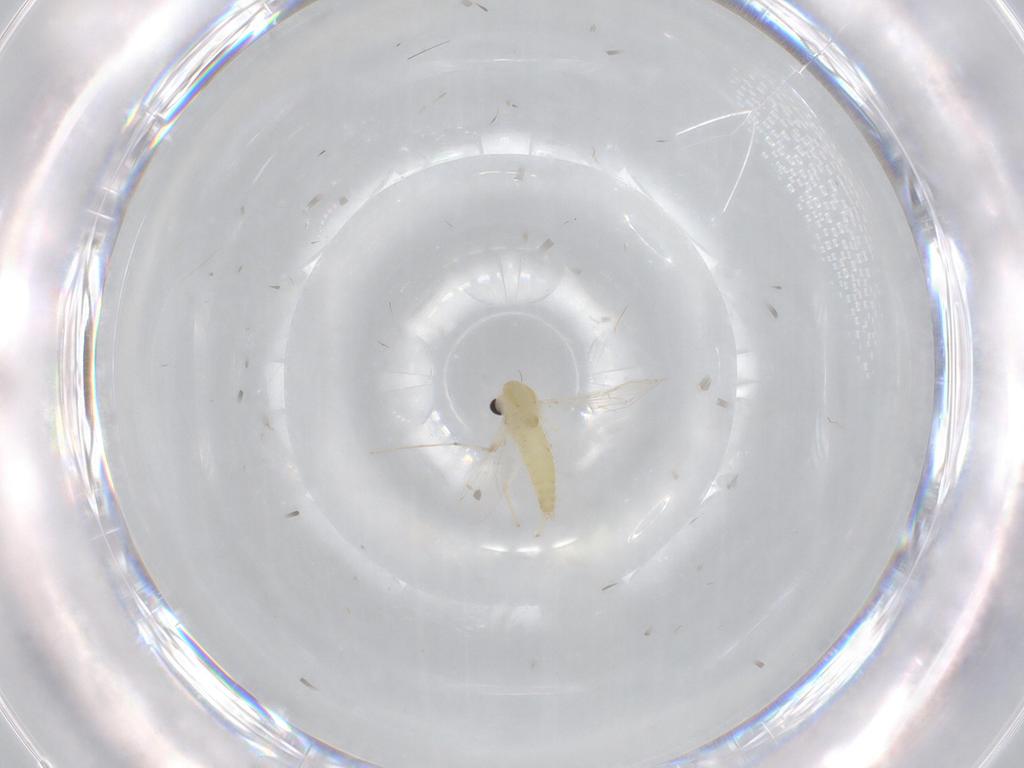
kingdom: Animalia
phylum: Arthropoda
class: Insecta
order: Diptera
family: Chironomidae
